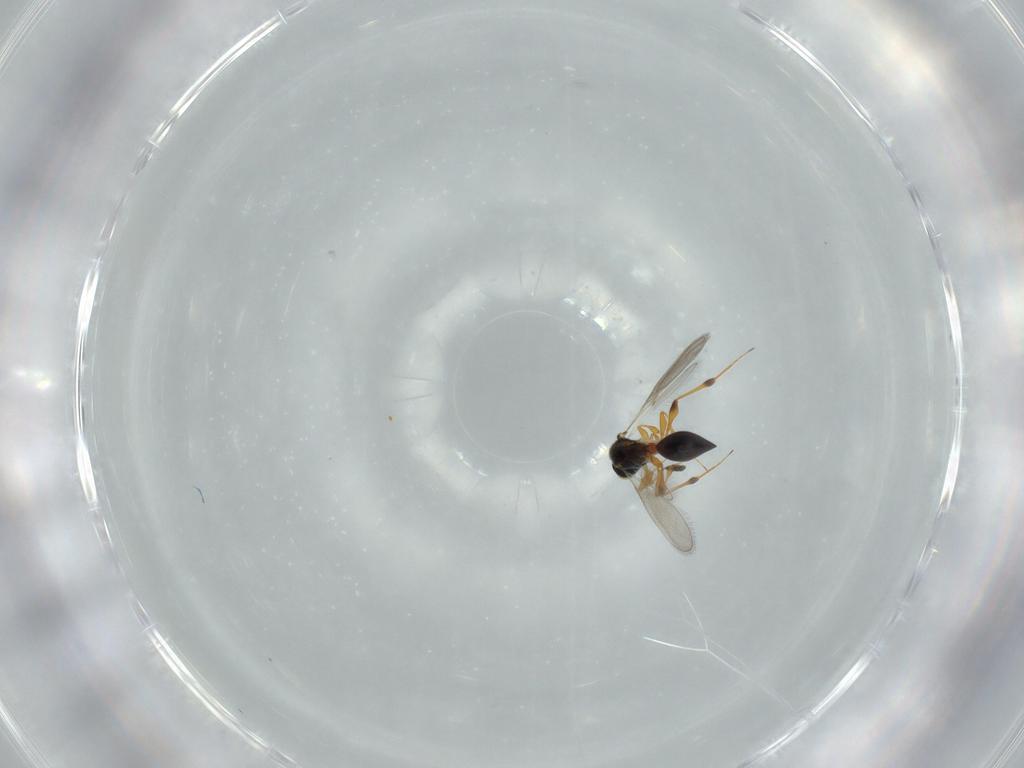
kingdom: Animalia
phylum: Arthropoda
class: Insecta
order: Hymenoptera
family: Platygastridae
